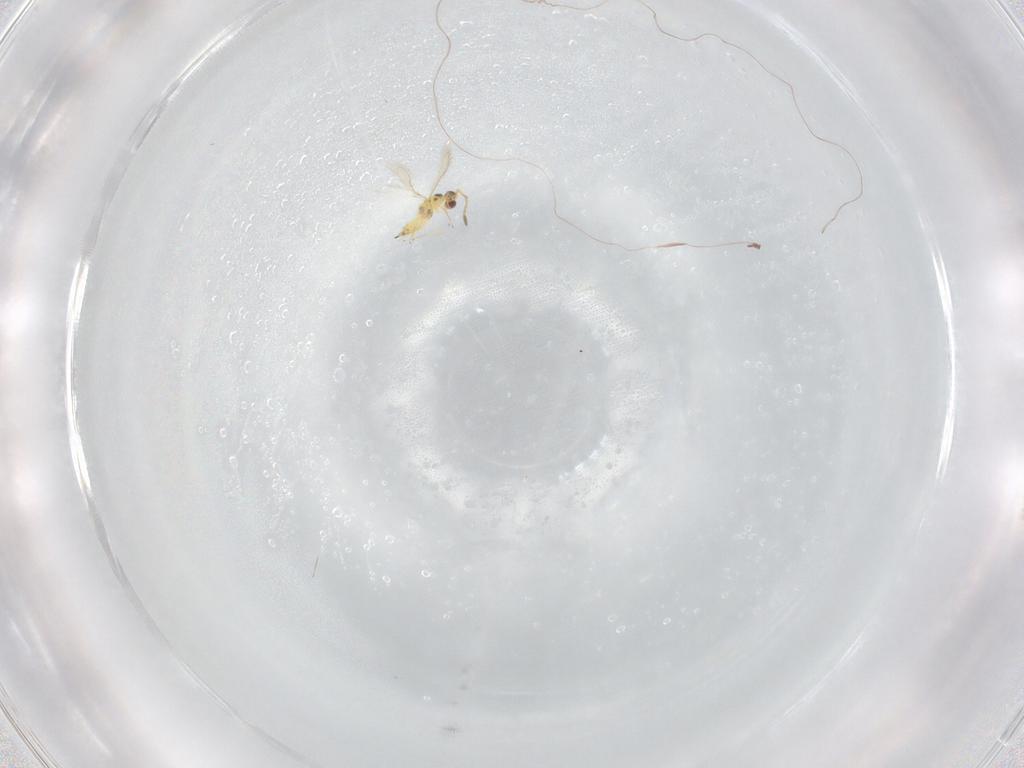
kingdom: Animalia
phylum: Arthropoda
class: Insecta
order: Hymenoptera
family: Mymaridae
